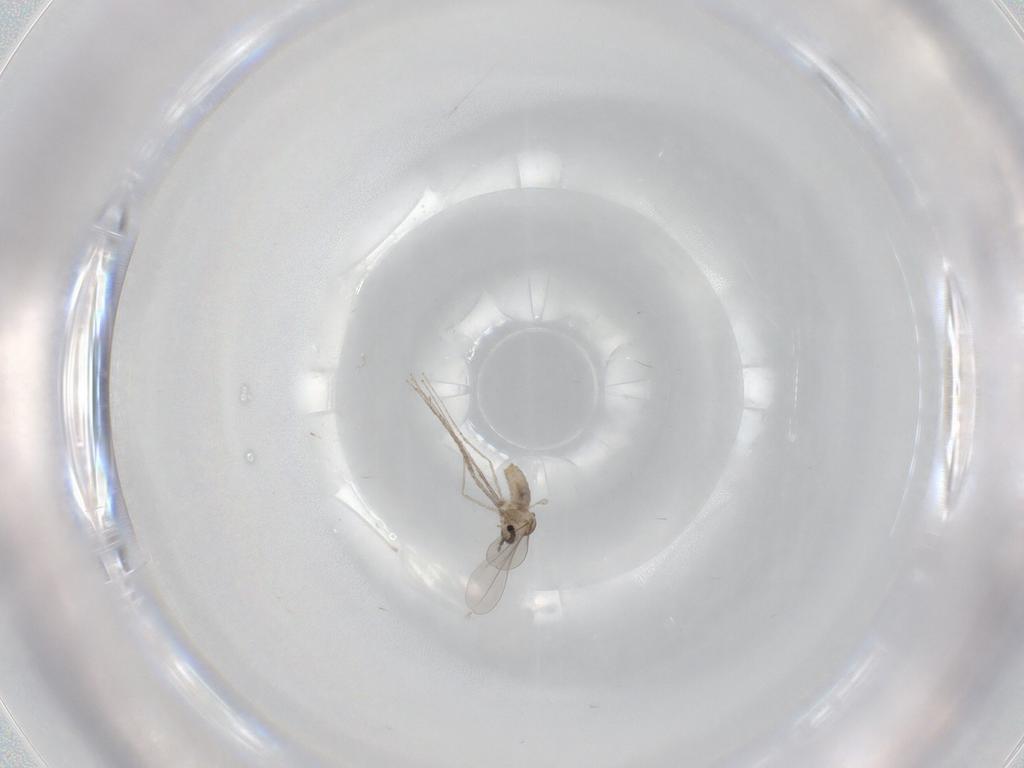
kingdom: Animalia
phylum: Arthropoda
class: Insecta
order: Diptera
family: Cecidomyiidae
